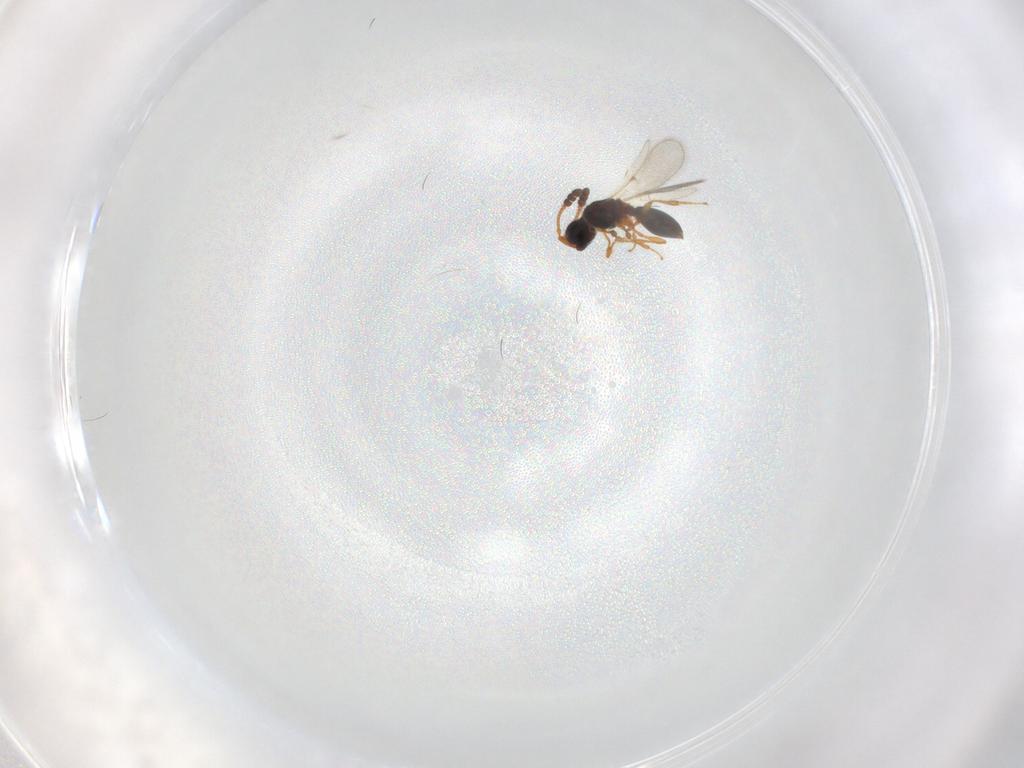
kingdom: Animalia
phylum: Arthropoda
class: Insecta
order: Hymenoptera
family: Diapriidae
